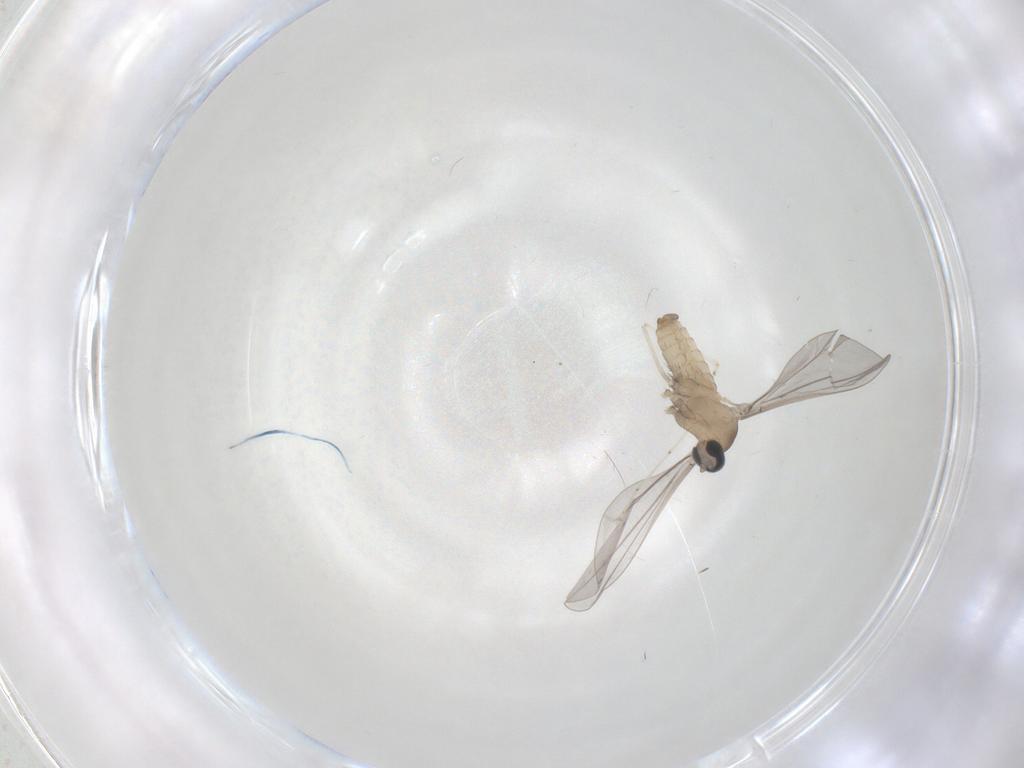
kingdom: Animalia
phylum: Arthropoda
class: Insecta
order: Diptera
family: Cecidomyiidae
